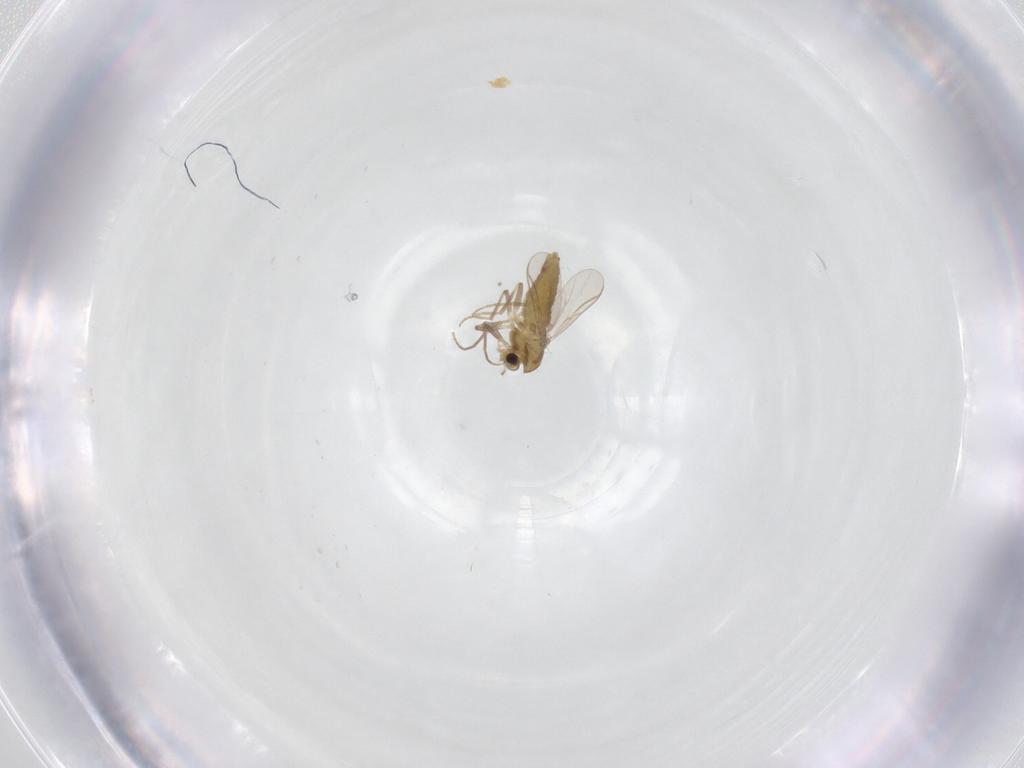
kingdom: Animalia
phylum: Arthropoda
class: Insecta
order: Diptera
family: Chironomidae
